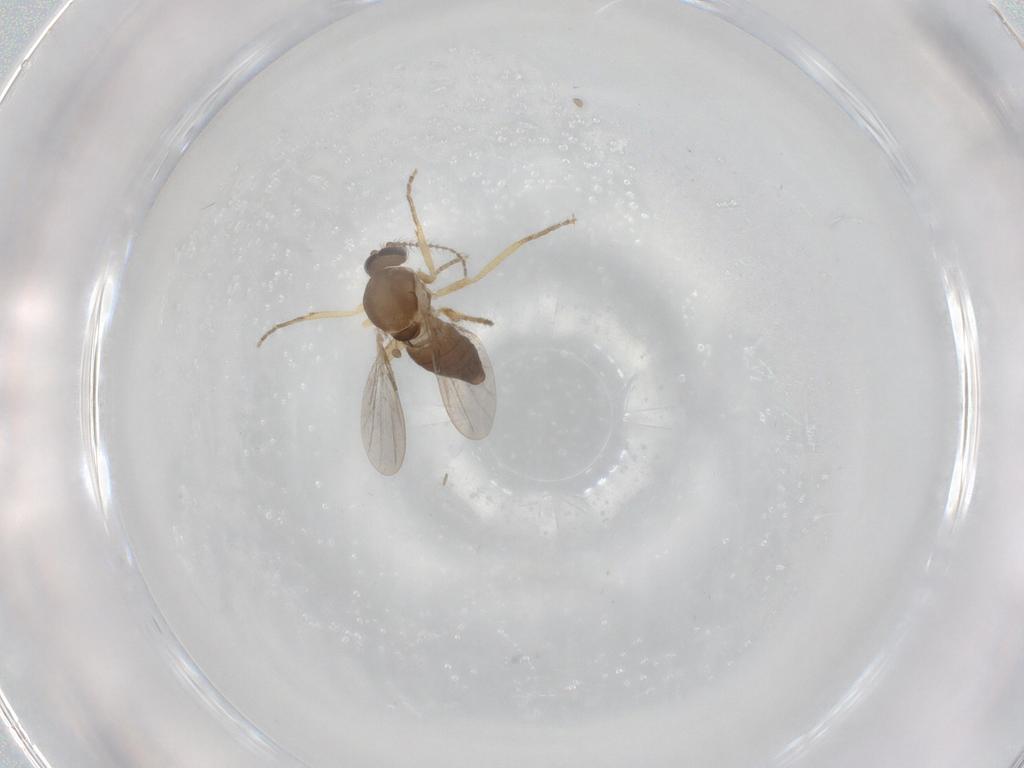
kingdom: Animalia
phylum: Arthropoda
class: Insecta
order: Diptera
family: Ceratopogonidae
